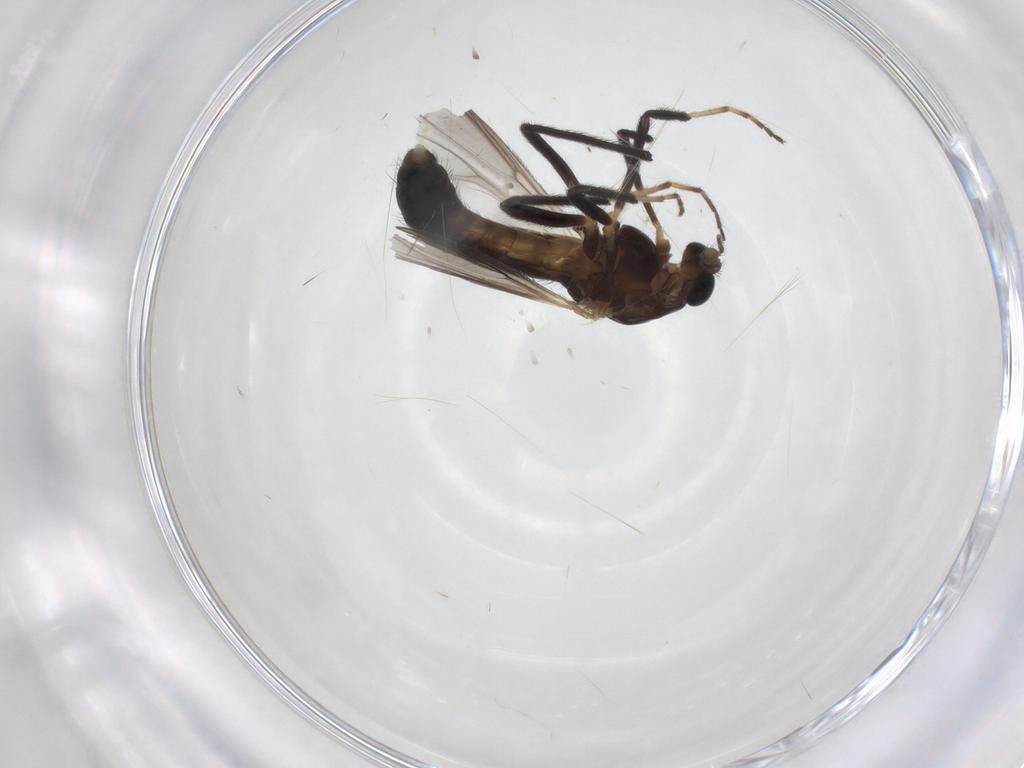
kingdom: Animalia
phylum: Arthropoda
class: Insecta
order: Diptera
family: Chironomidae
